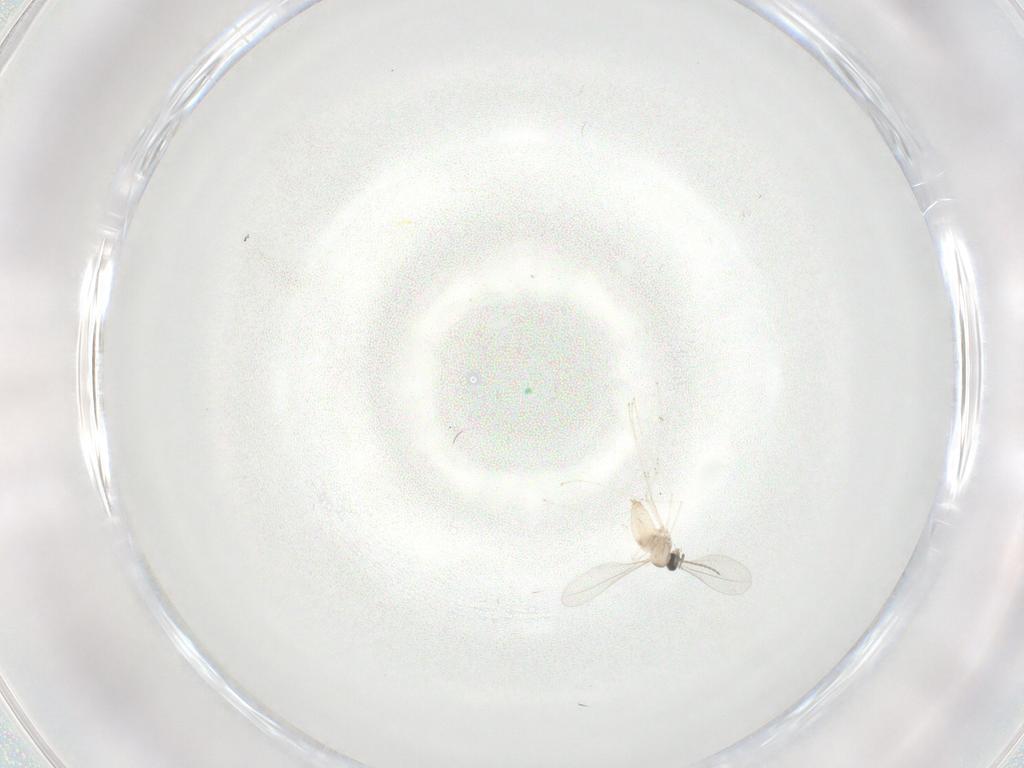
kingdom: Animalia
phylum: Arthropoda
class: Insecta
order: Diptera
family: Cecidomyiidae
